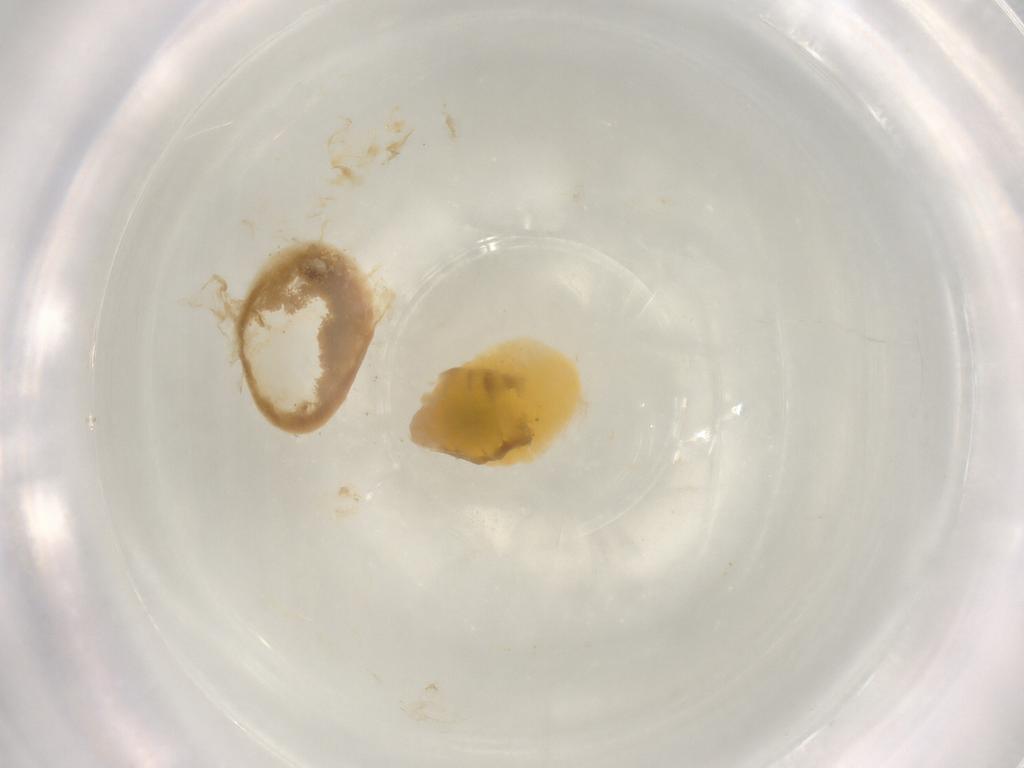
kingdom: Animalia
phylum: Arthropoda
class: Insecta
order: Hymenoptera
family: Pteromalidae
